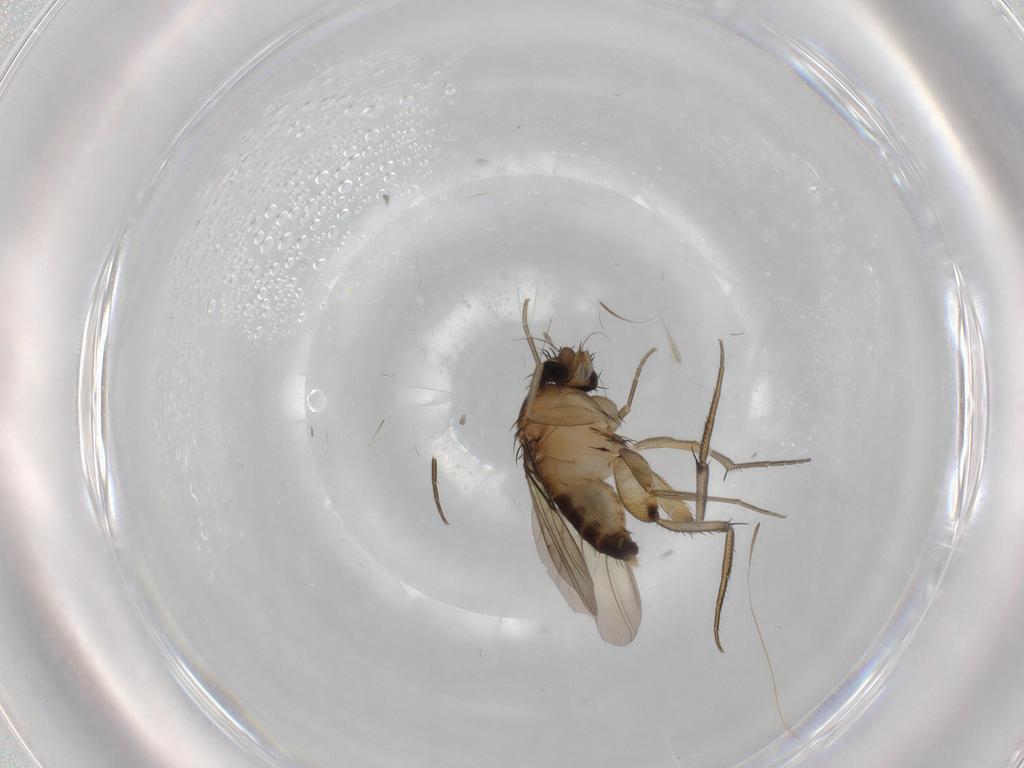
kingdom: Animalia
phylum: Arthropoda
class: Insecta
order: Diptera
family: Phoridae
